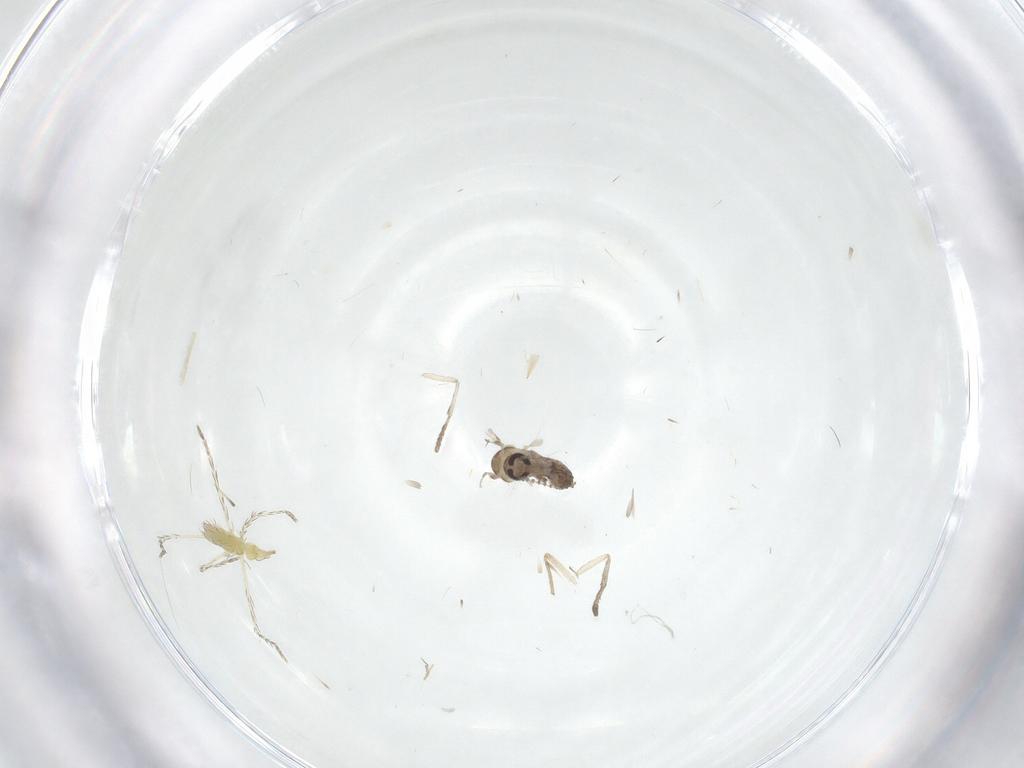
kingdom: Animalia
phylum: Arthropoda
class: Insecta
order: Diptera
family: Psychodidae
